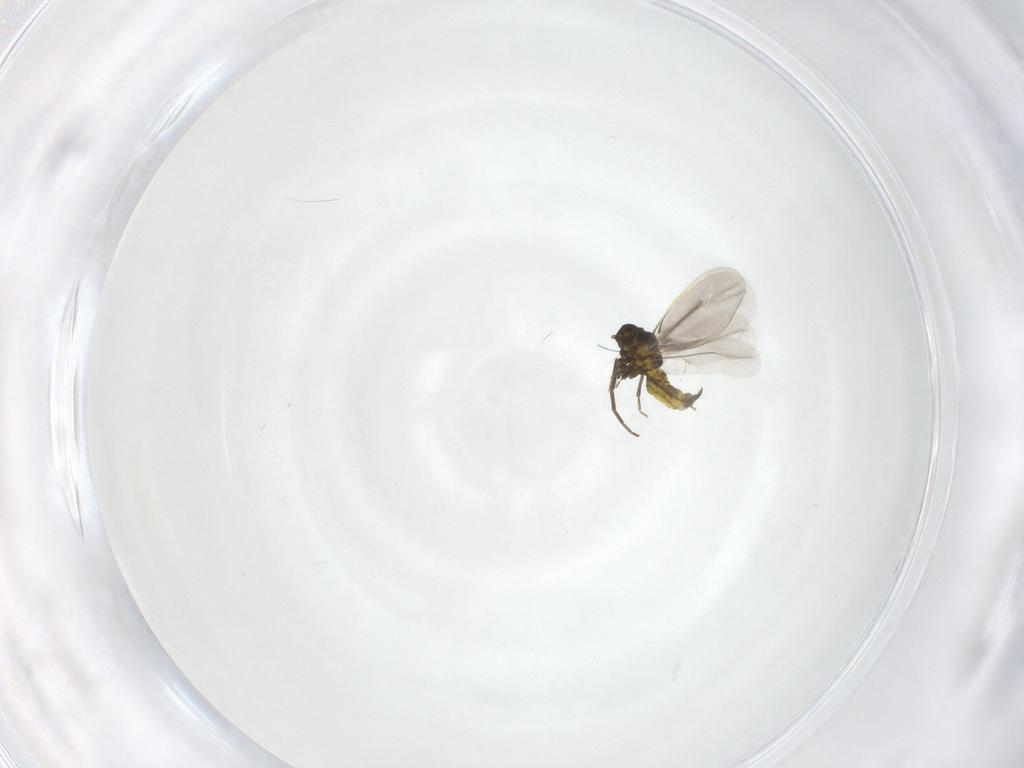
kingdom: Animalia
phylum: Arthropoda
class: Insecta
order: Hemiptera
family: Aleyrodidae
